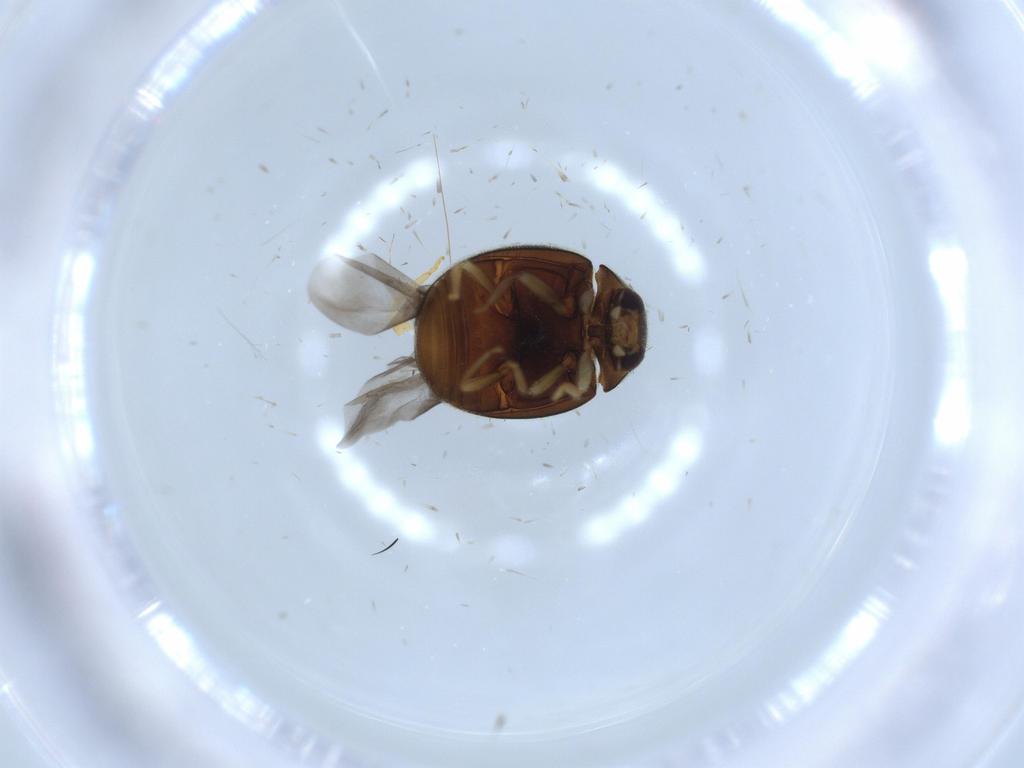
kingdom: Animalia
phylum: Arthropoda
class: Insecta
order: Coleoptera
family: Coccinellidae
